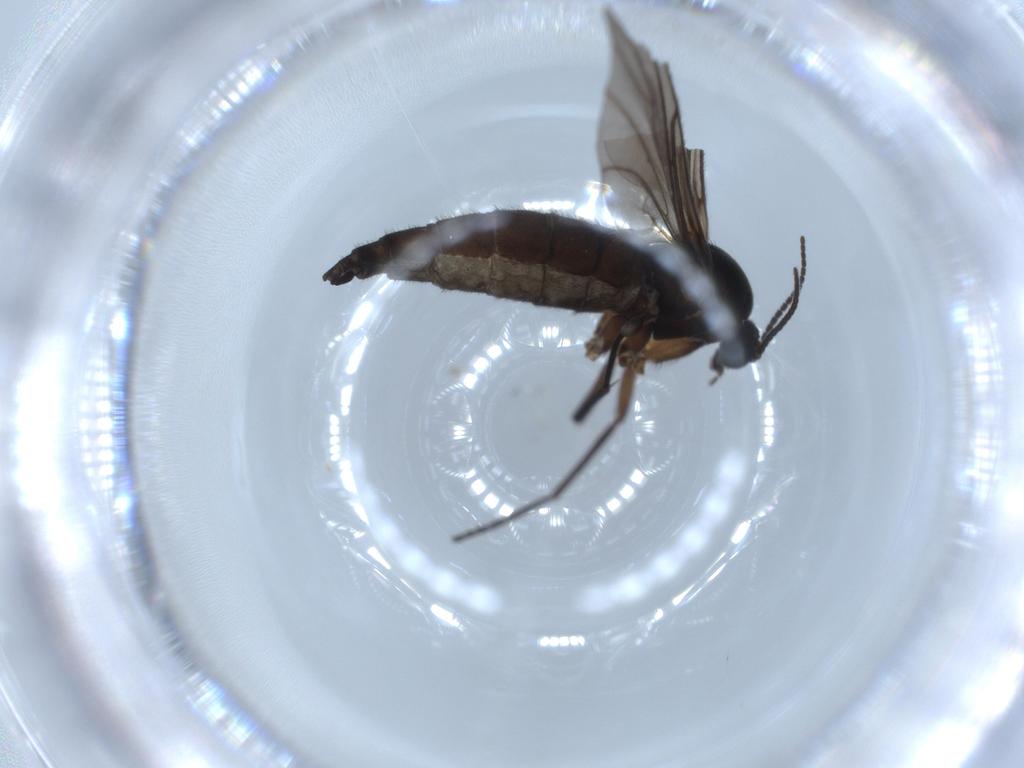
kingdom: Animalia
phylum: Arthropoda
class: Insecta
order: Diptera
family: Sciaridae
